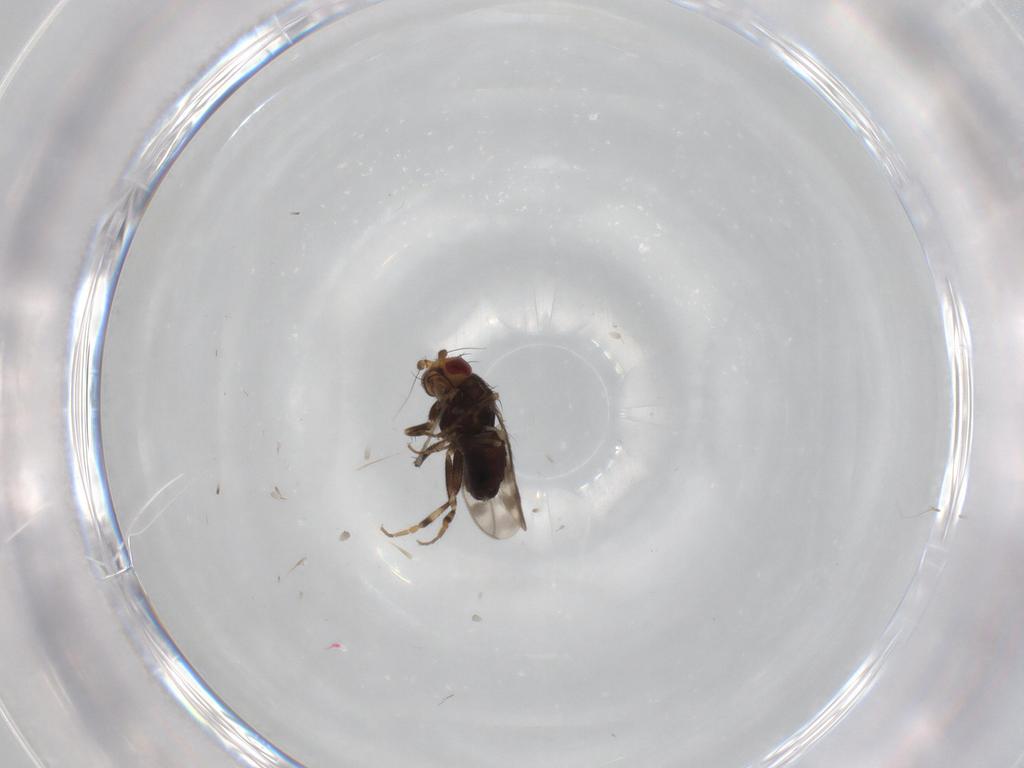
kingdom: Animalia
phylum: Arthropoda
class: Insecta
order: Diptera
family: Sphaeroceridae
